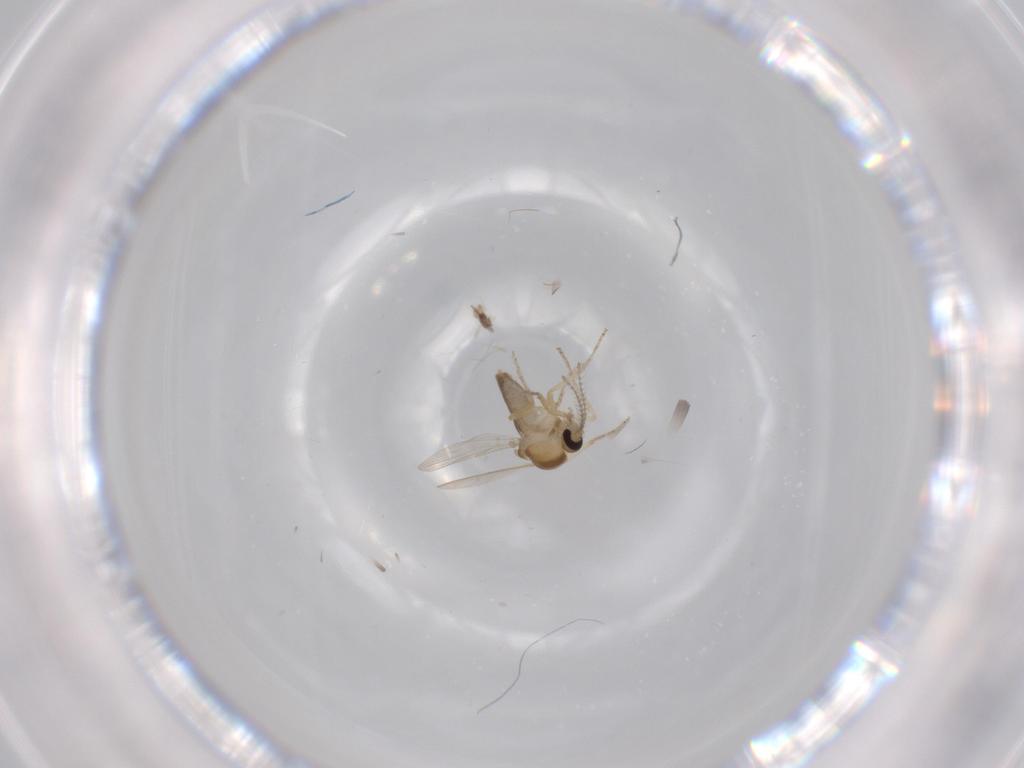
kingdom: Animalia
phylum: Arthropoda
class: Insecta
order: Diptera
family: Ceratopogonidae
